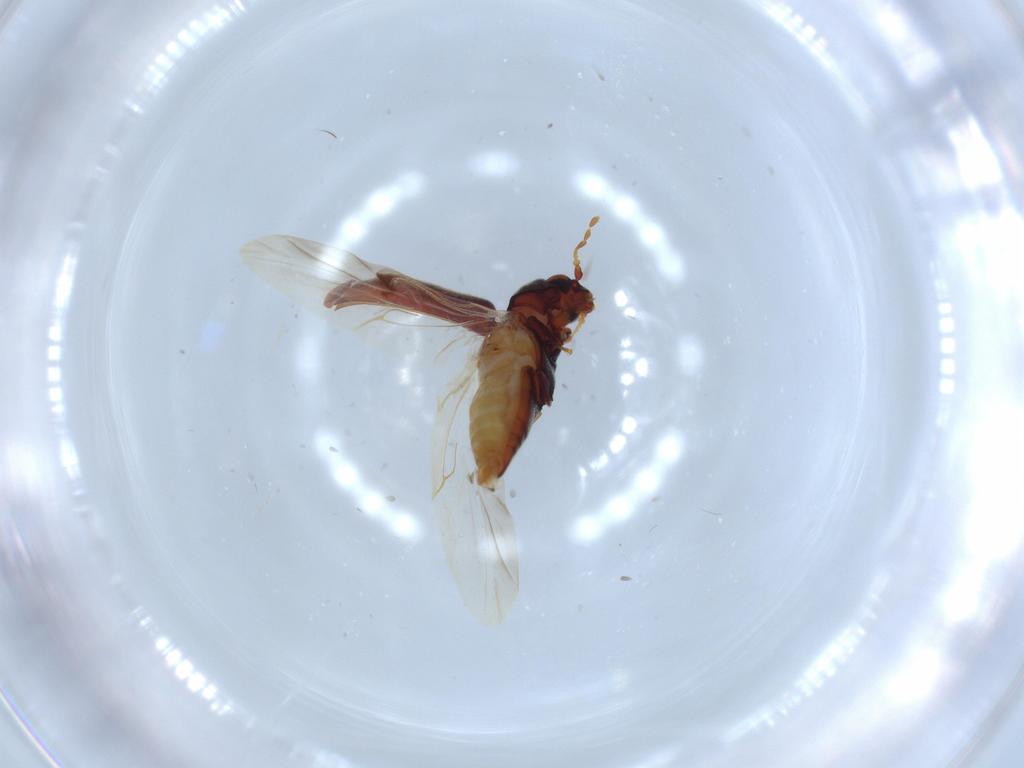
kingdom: Animalia
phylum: Arthropoda
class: Insecta
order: Coleoptera
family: Ptinidae
